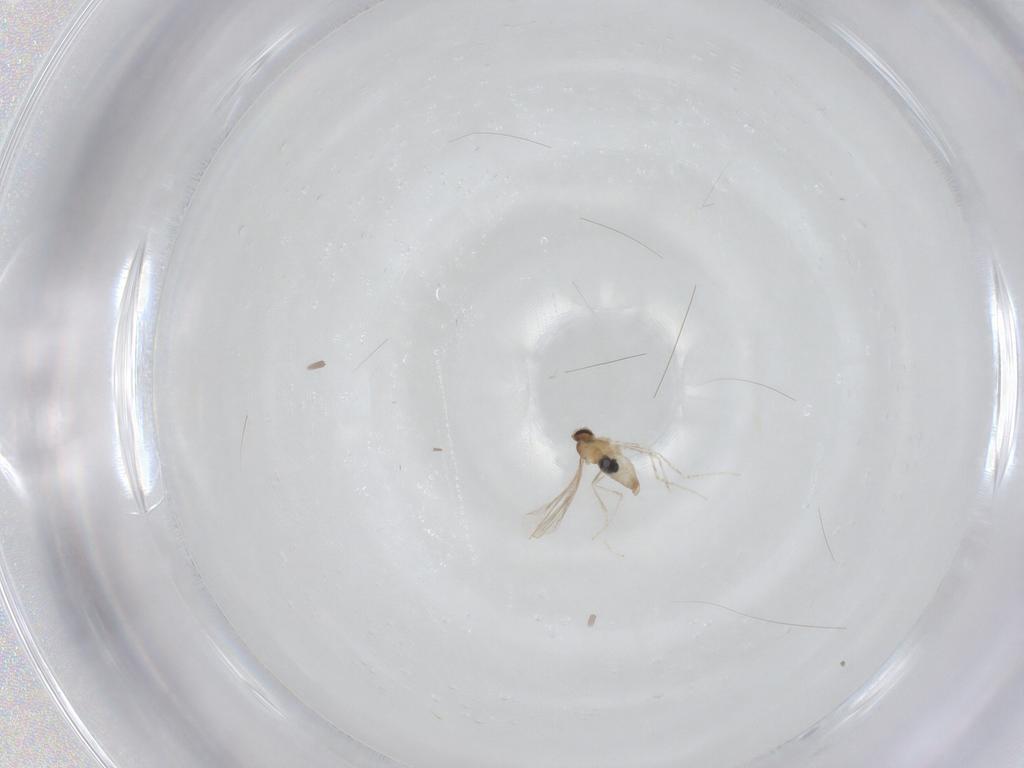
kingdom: Animalia
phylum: Arthropoda
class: Insecta
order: Diptera
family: Cecidomyiidae
